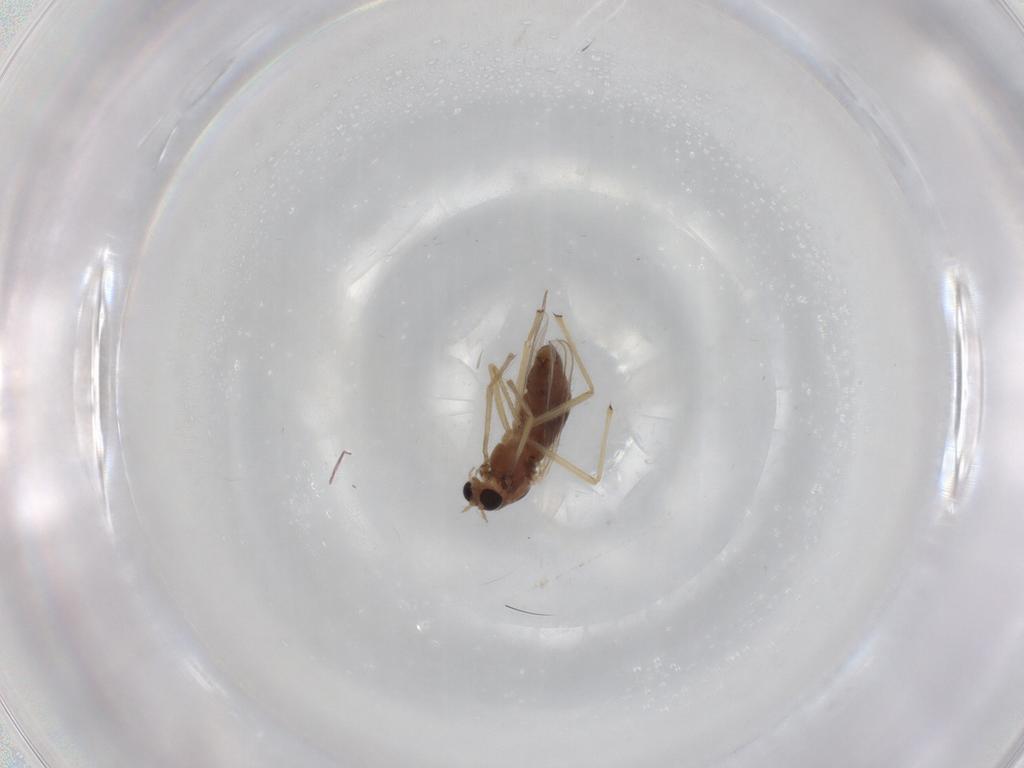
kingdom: Animalia
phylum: Arthropoda
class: Insecta
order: Diptera
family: Chironomidae
